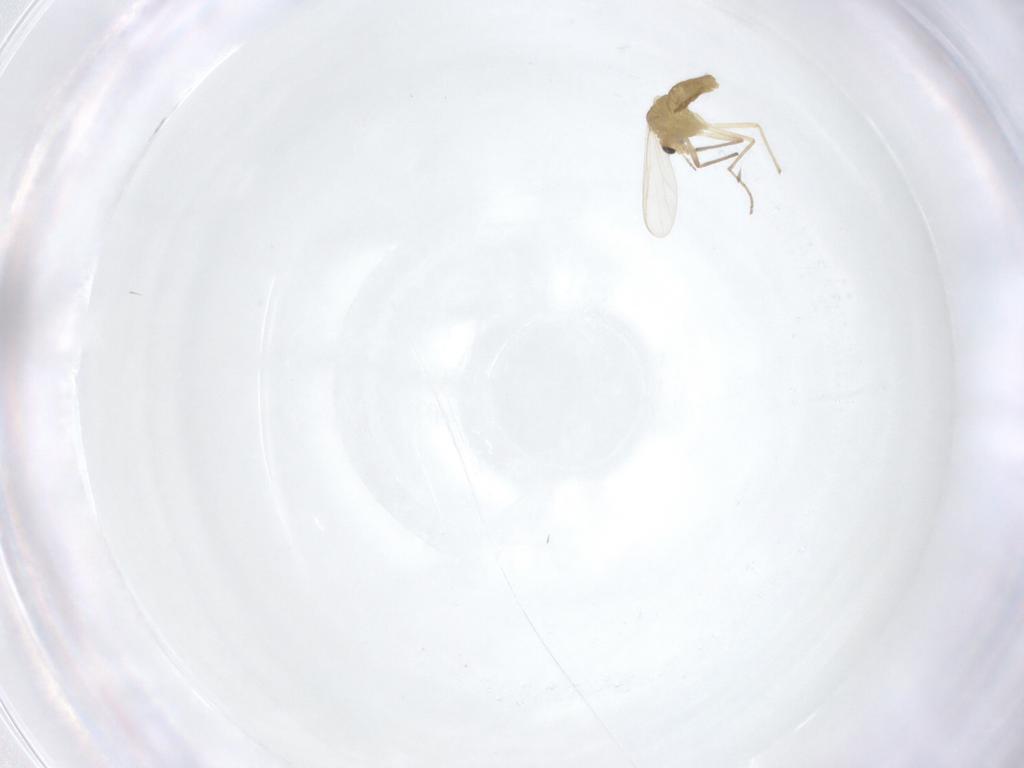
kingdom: Animalia
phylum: Arthropoda
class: Insecta
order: Diptera
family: Chironomidae
